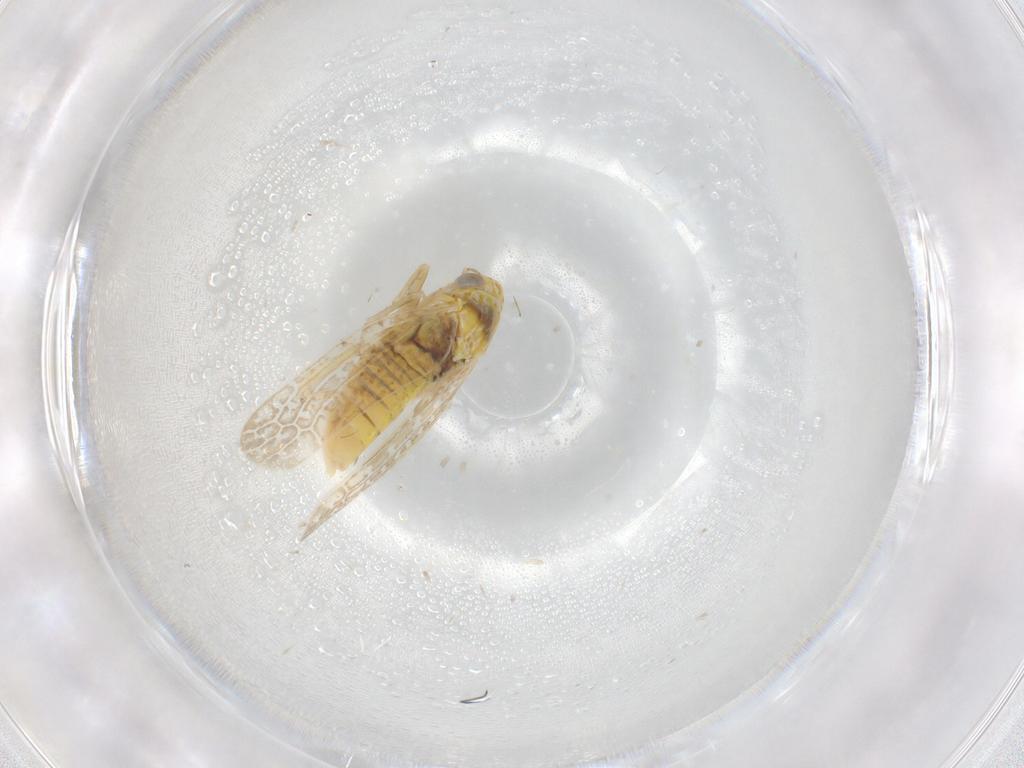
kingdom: Animalia
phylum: Arthropoda
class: Insecta
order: Hemiptera
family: Cicadellidae
